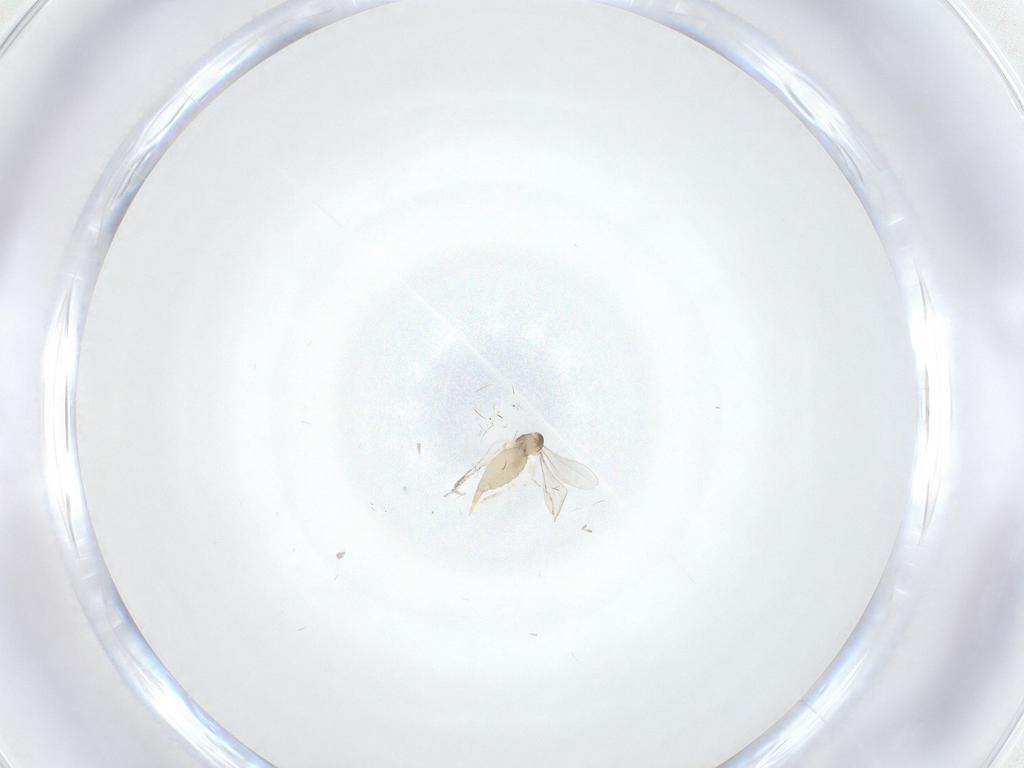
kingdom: Animalia
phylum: Arthropoda
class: Insecta
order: Diptera
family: Dolichopodidae
